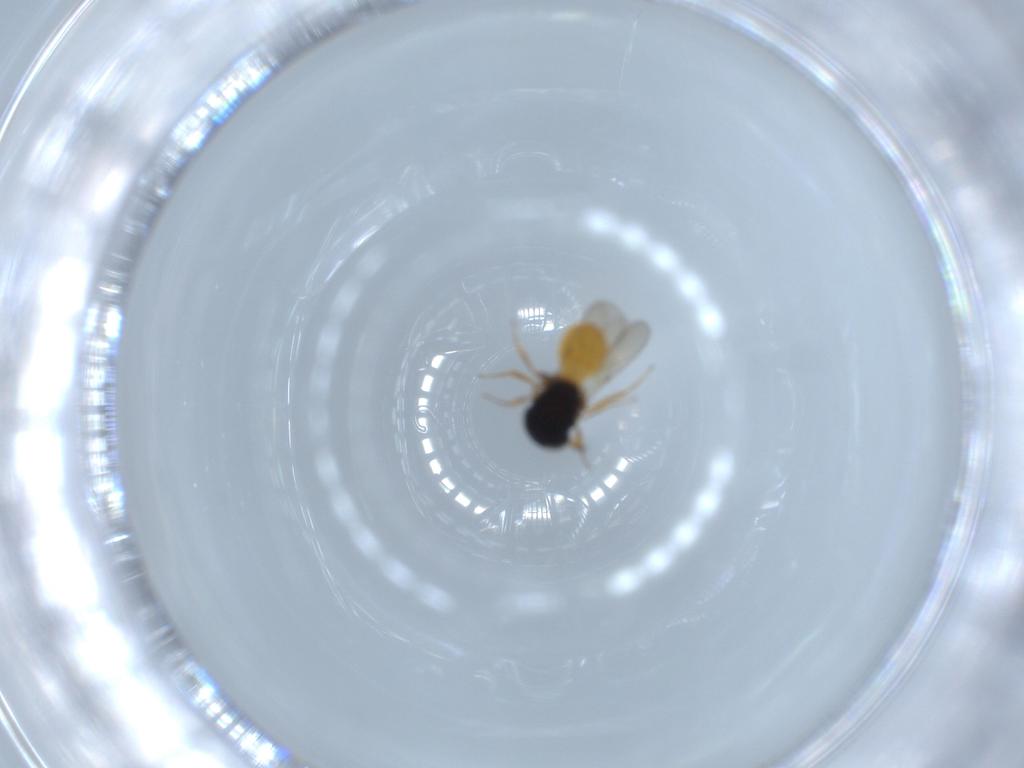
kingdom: Animalia
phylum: Arthropoda
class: Insecta
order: Hymenoptera
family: Scelionidae
